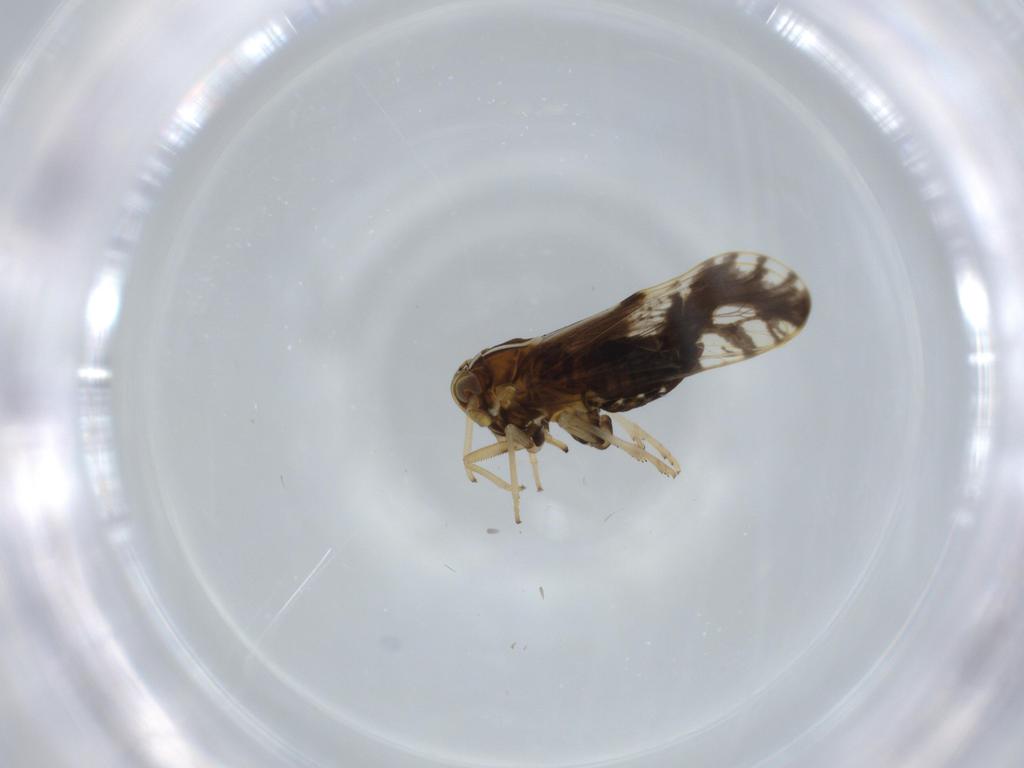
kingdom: Animalia
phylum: Arthropoda
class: Insecta
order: Hemiptera
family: Delphacidae
